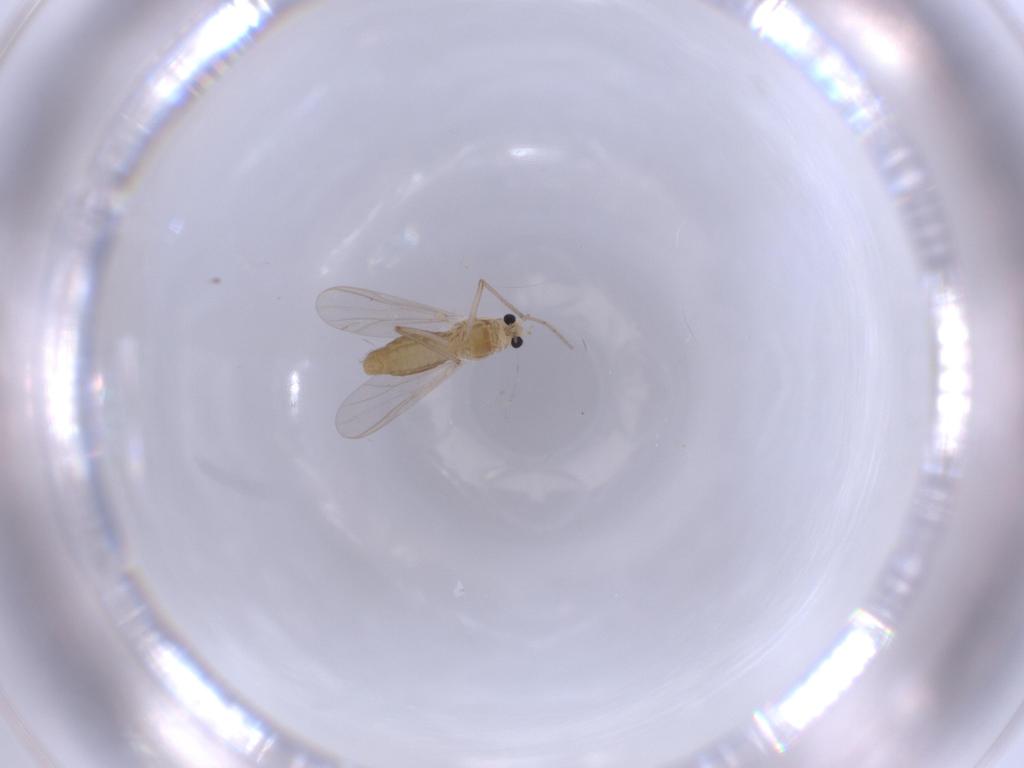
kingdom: Animalia
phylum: Arthropoda
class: Insecta
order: Diptera
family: Chironomidae
